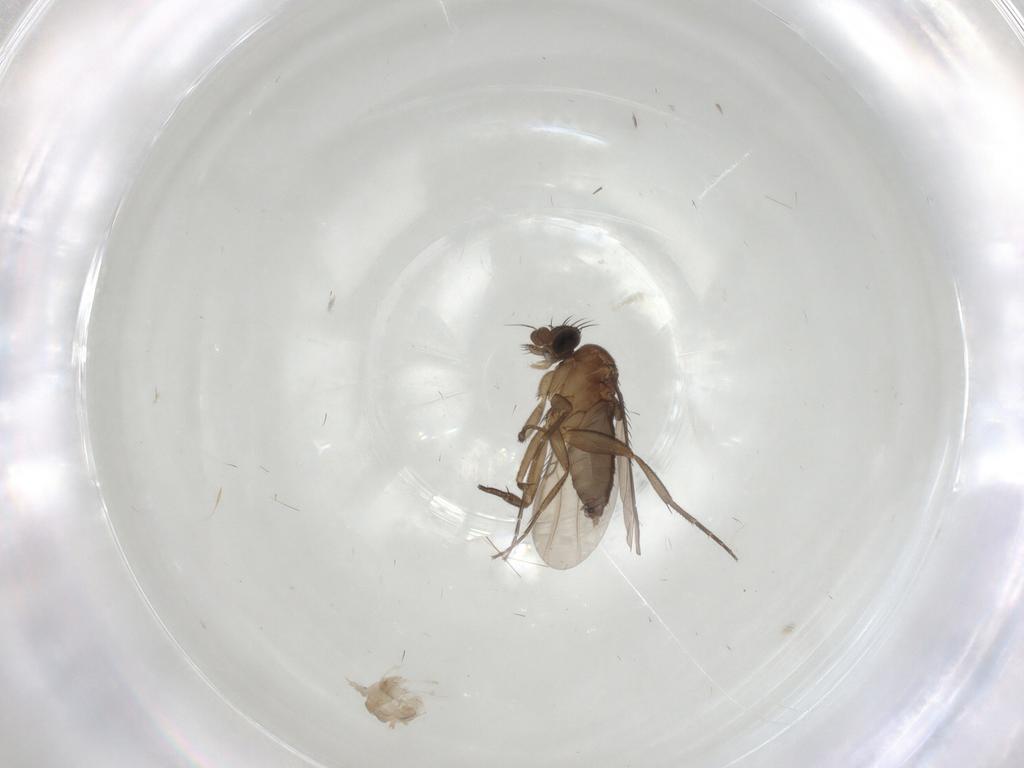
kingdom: Animalia
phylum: Arthropoda
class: Insecta
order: Diptera
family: Phoridae
